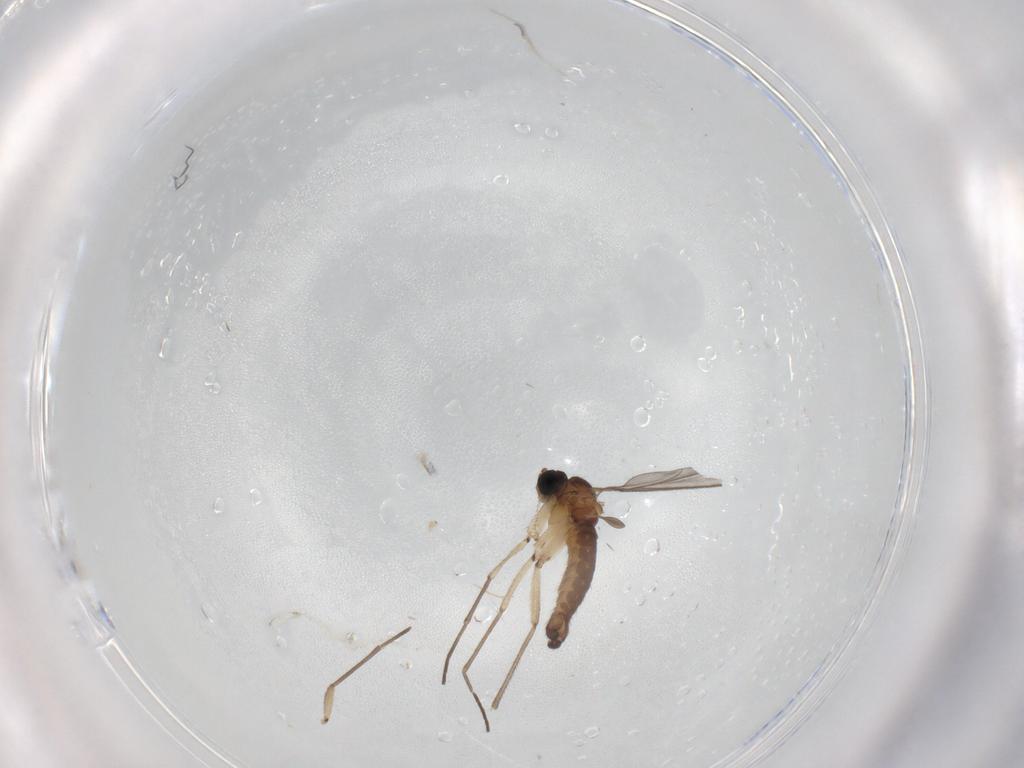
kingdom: Animalia
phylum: Arthropoda
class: Insecta
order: Diptera
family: Sciaridae
